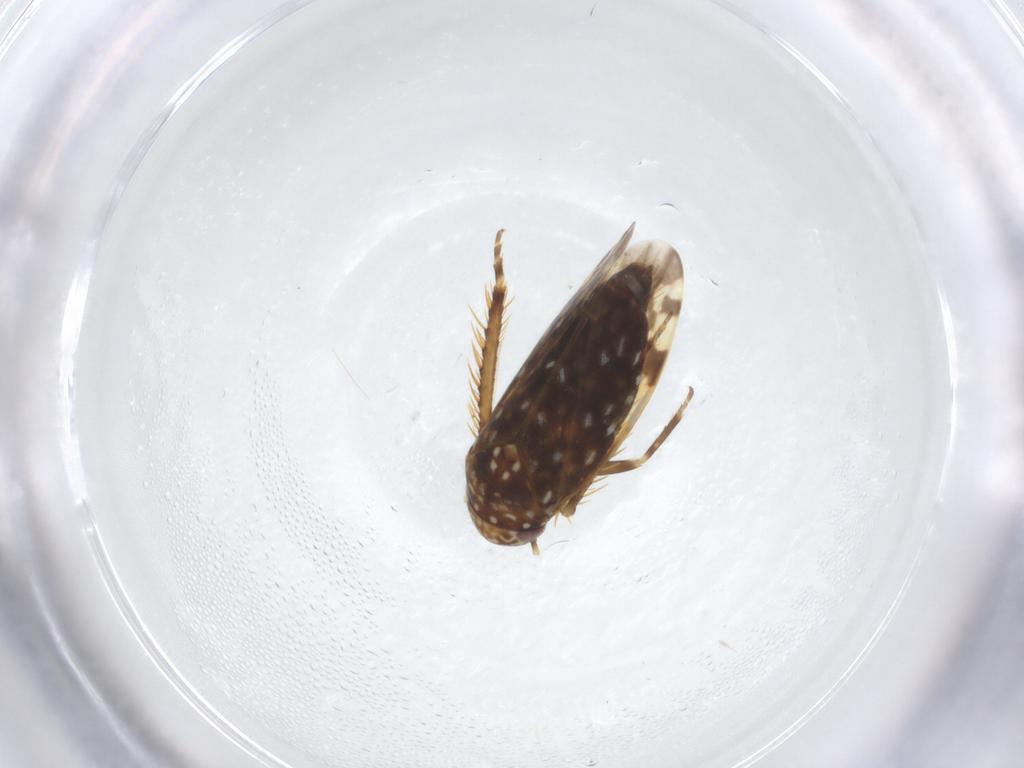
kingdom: Animalia
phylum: Arthropoda
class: Insecta
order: Hemiptera
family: Cicadellidae
